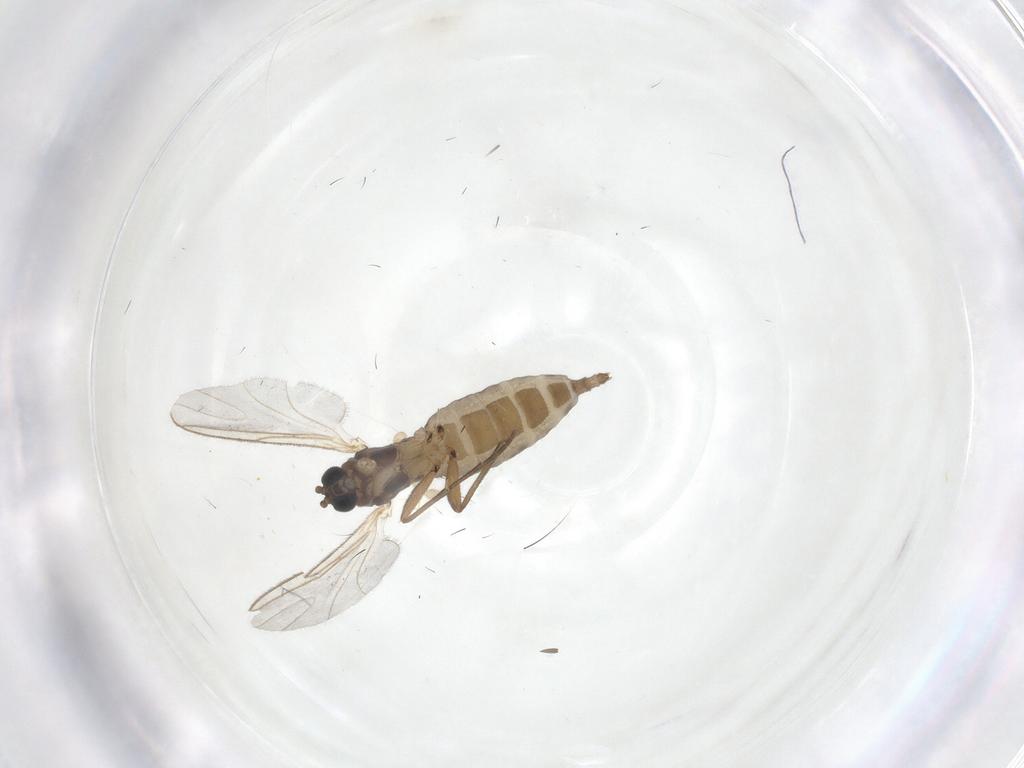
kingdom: Animalia
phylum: Arthropoda
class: Insecta
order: Diptera
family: Sciaridae
